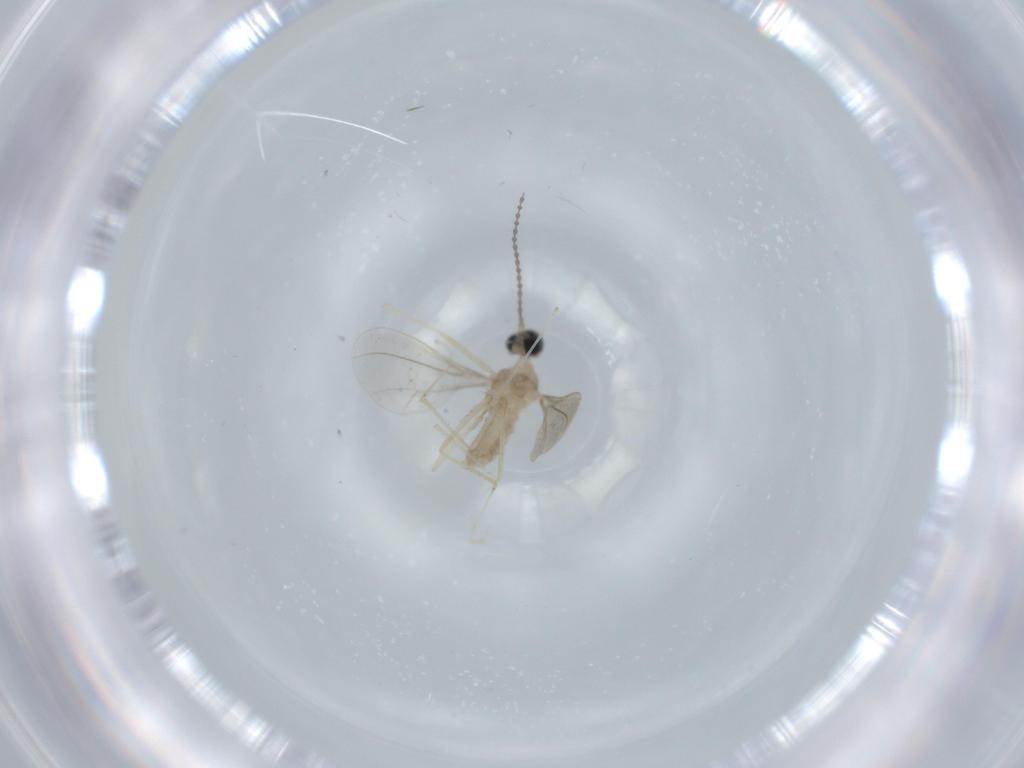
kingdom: Animalia
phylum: Arthropoda
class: Insecta
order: Diptera
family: Cecidomyiidae
